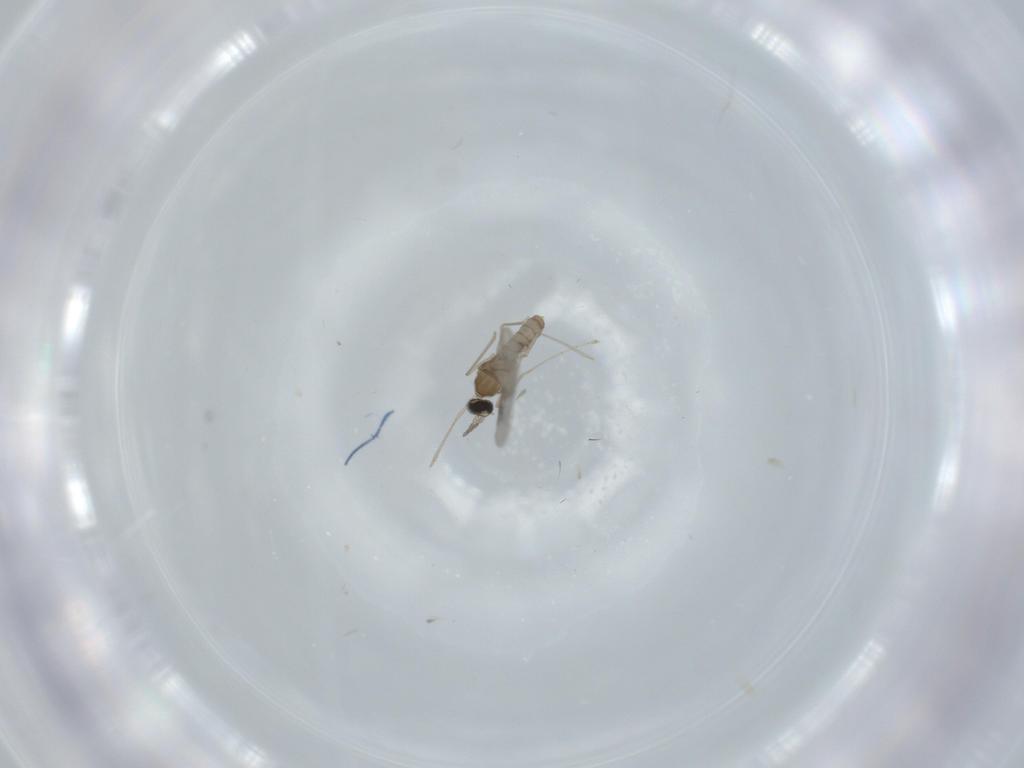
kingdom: Animalia
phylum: Arthropoda
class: Insecta
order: Diptera
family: Cecidomyiidae
